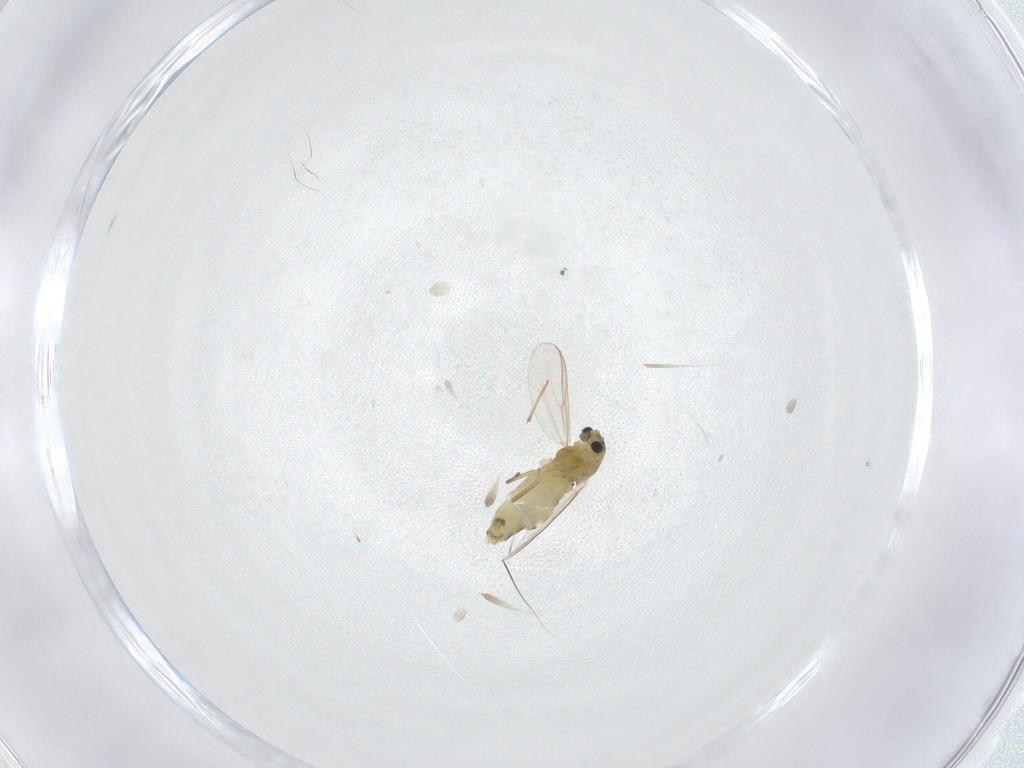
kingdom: Animalia
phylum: Arthropoda
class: Insecta
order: Diptera
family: Chironomidae
